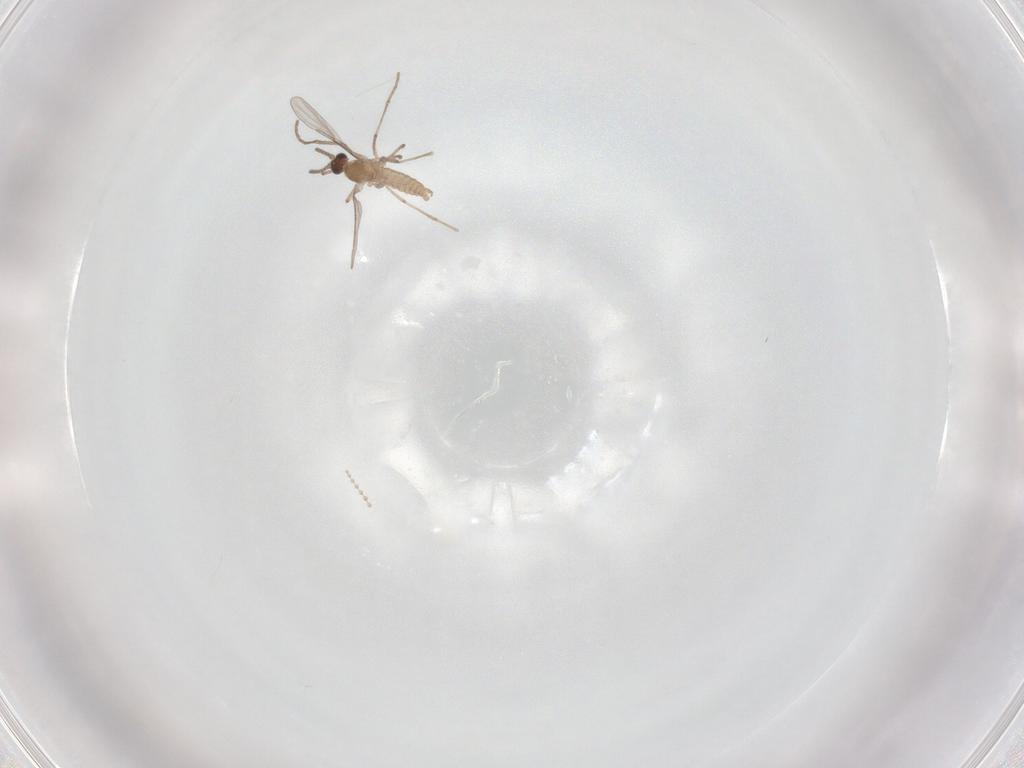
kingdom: Animalia
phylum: Arthropoda
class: Insecta
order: Diptera
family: Cecidomyiidae
